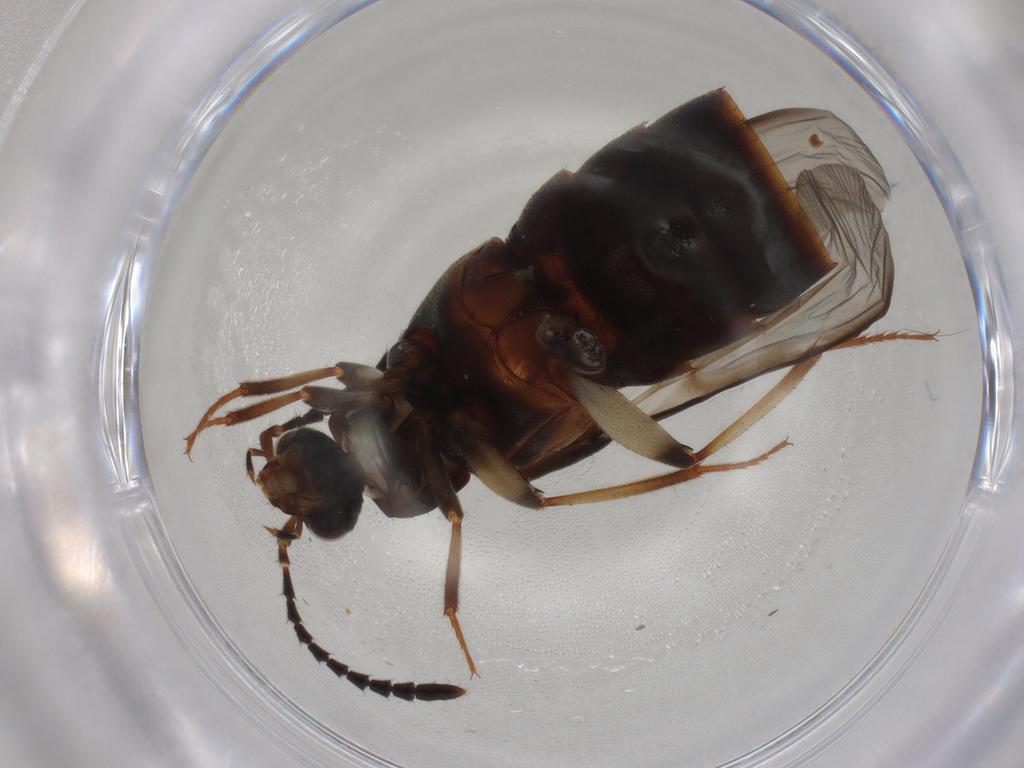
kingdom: Animalia
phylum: Arthropoda
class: Insecta
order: Coleoptera
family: Staphylinidae
